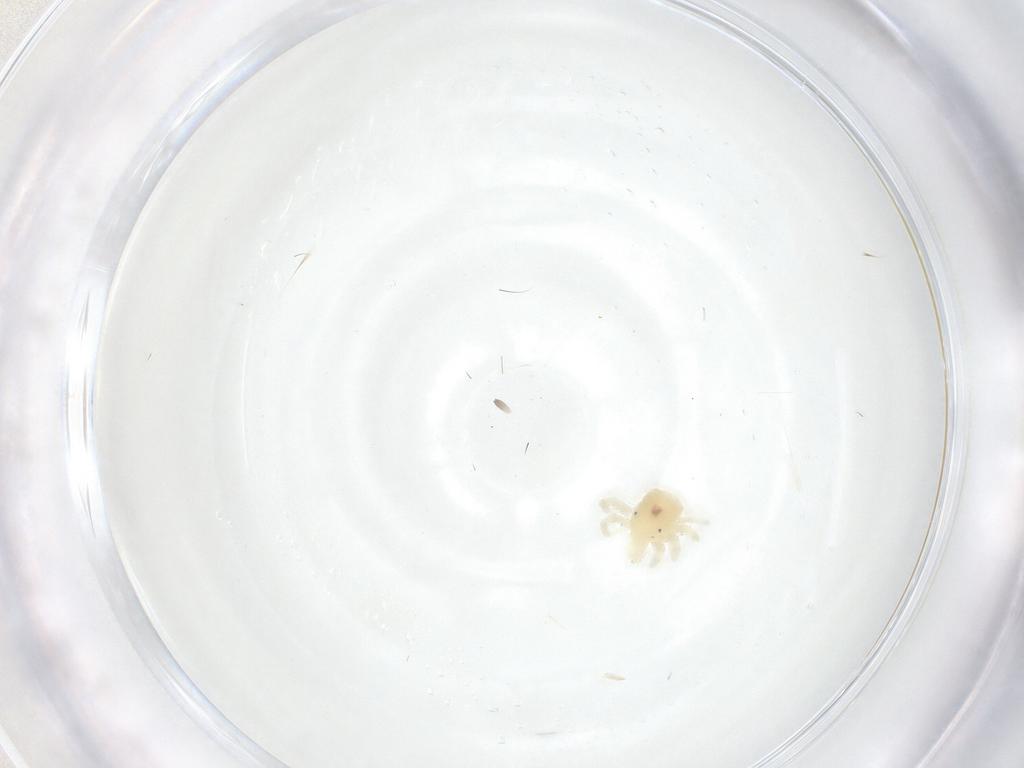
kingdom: Animalia
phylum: Arthropoda
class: Arachnida
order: Trombidiformes
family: Anystidae
